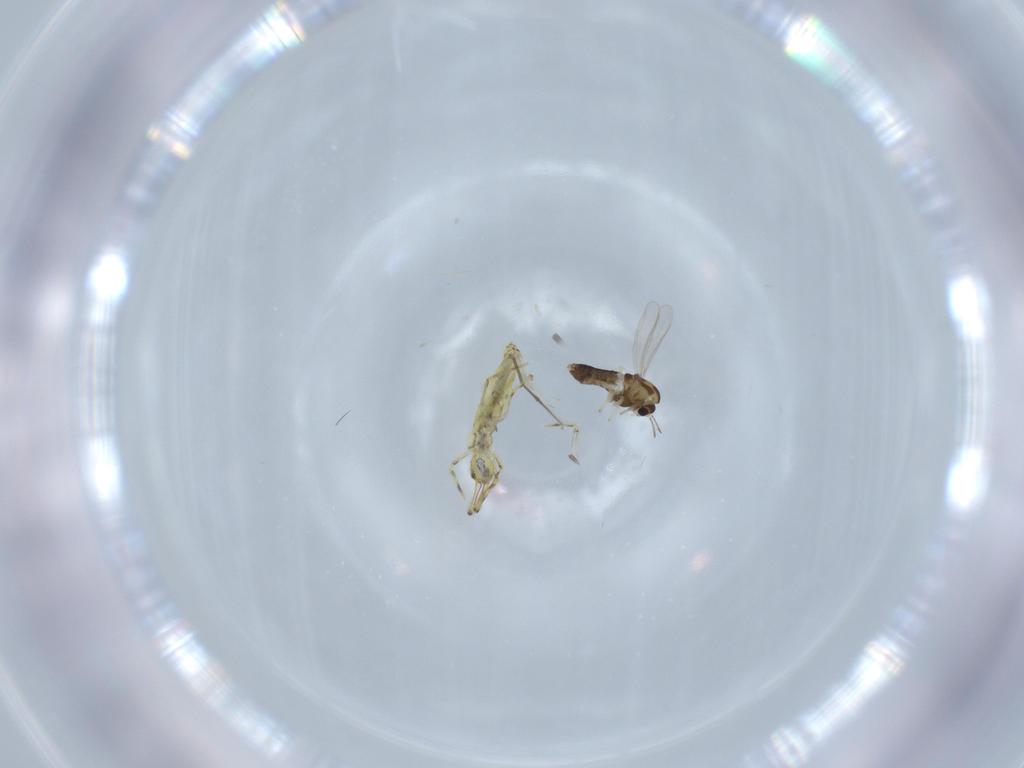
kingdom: Animalia
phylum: Arthropoda
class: Insecta
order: Diptera
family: Chironomidae
